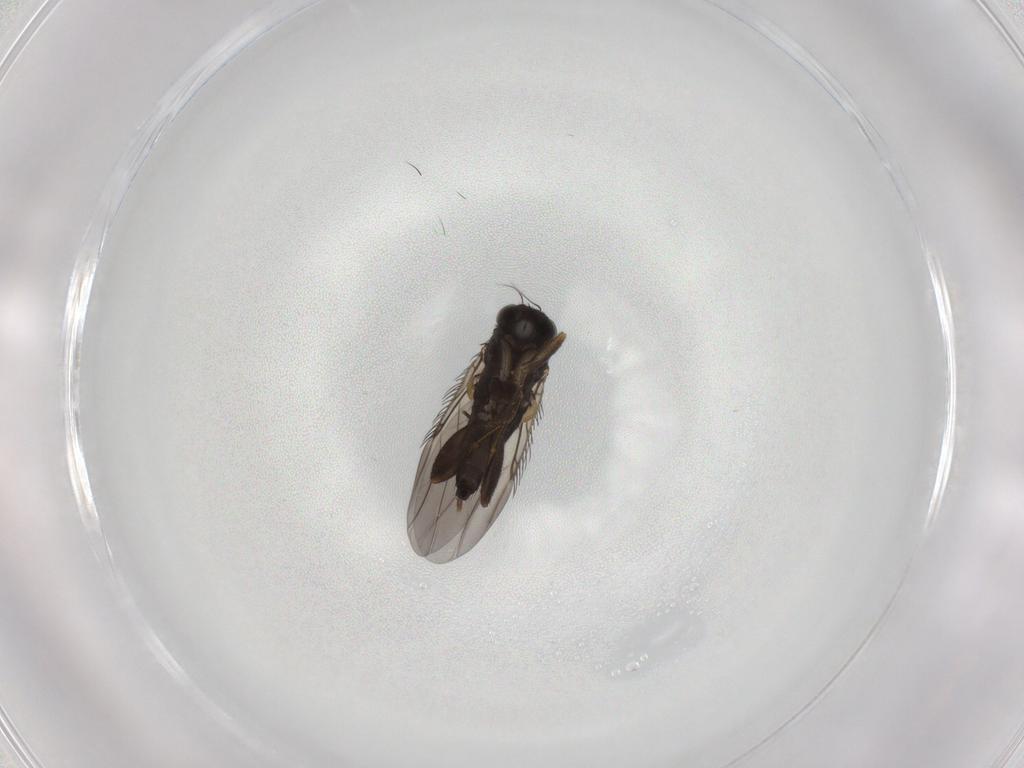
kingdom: Animalia
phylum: Arthropoda
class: Insecta
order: Diptera
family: Phoridae
